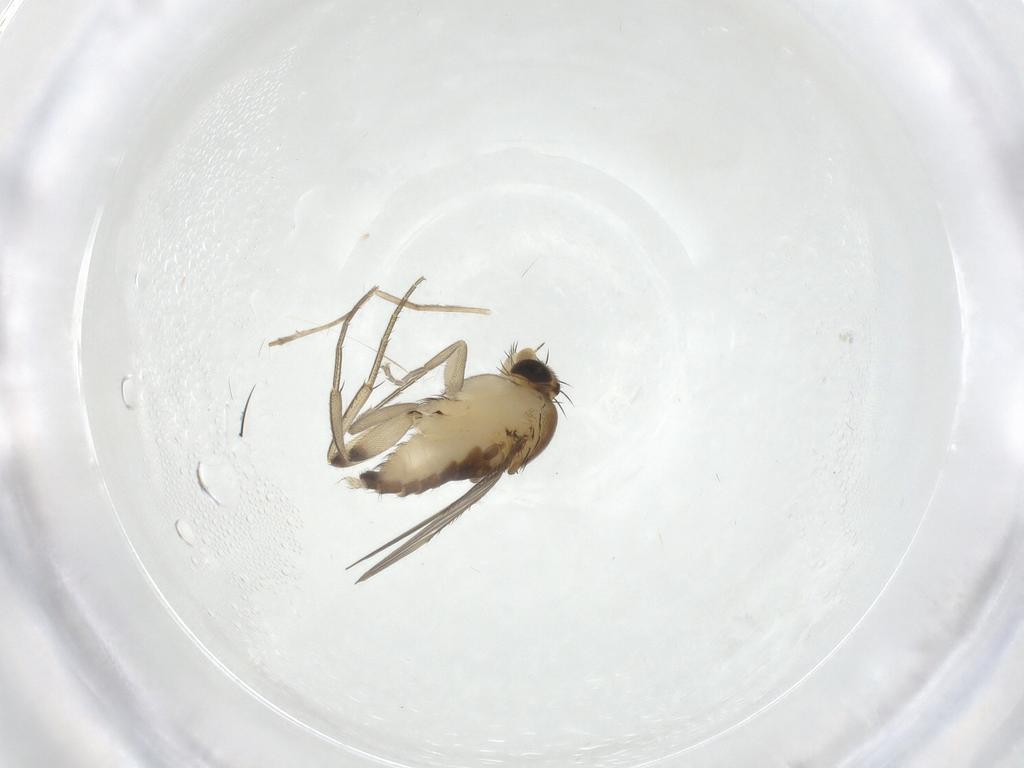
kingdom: Animalia
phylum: Arthropoda
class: Insecta
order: Diptera
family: Cecidomyiidae
